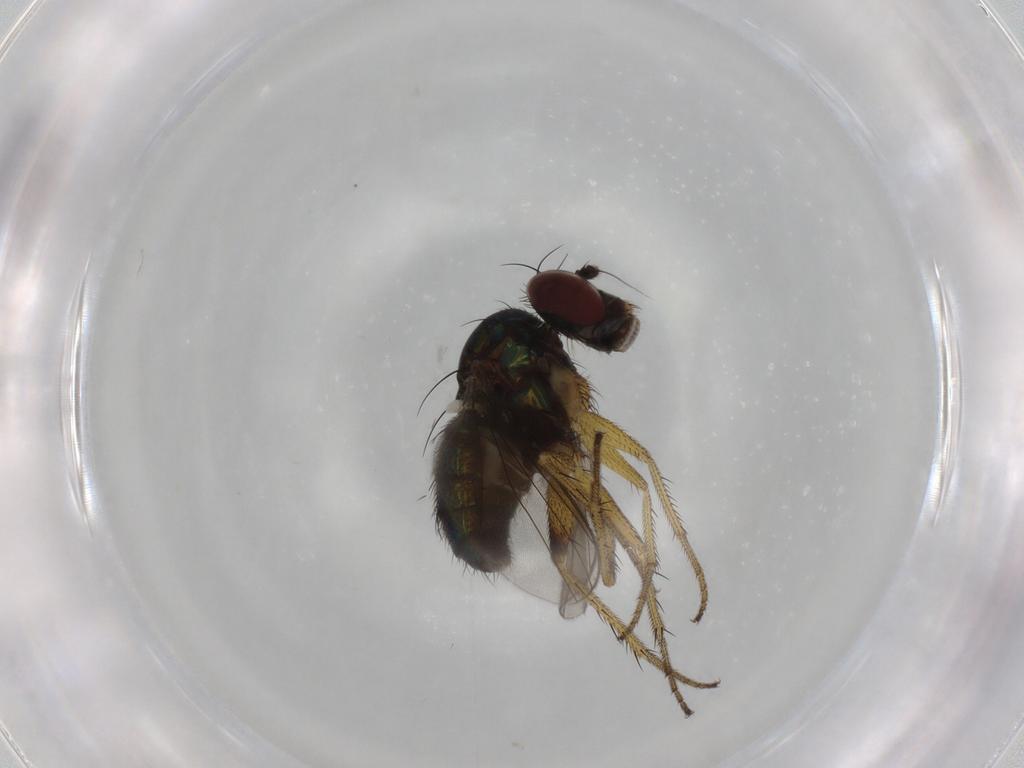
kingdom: Animalia
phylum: Arthropoda
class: Insecta
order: Diptera
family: Dolichopodidae
